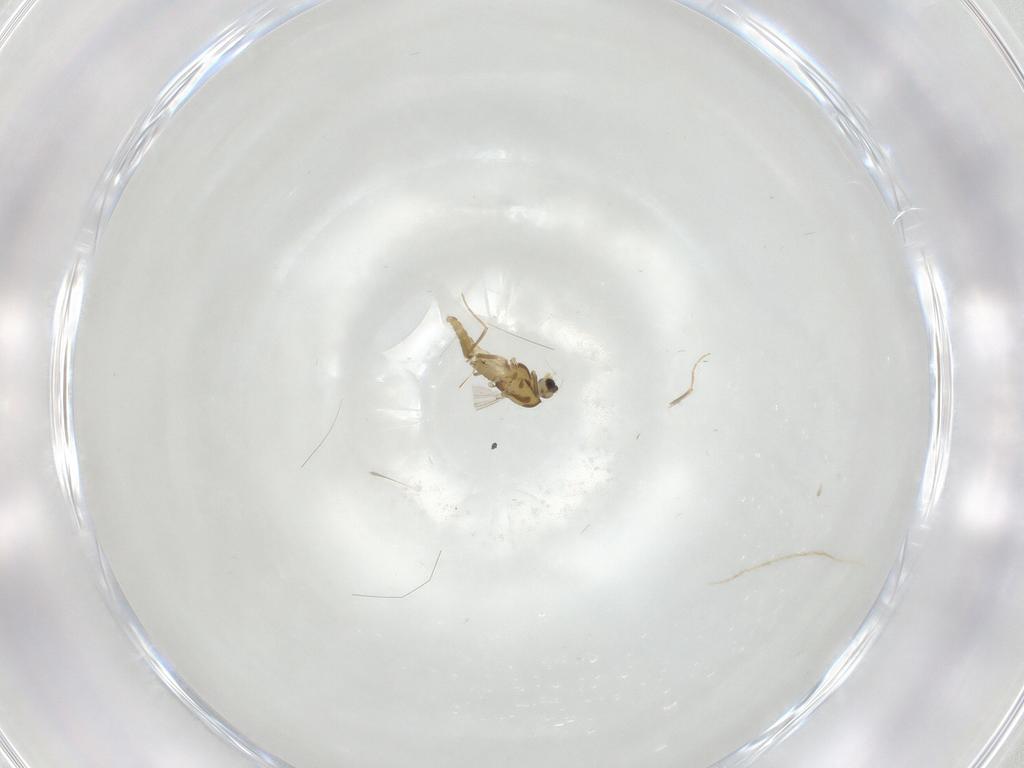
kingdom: Animalia
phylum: Arthropoda
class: Insecta
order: Diptera
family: Chironomidae
